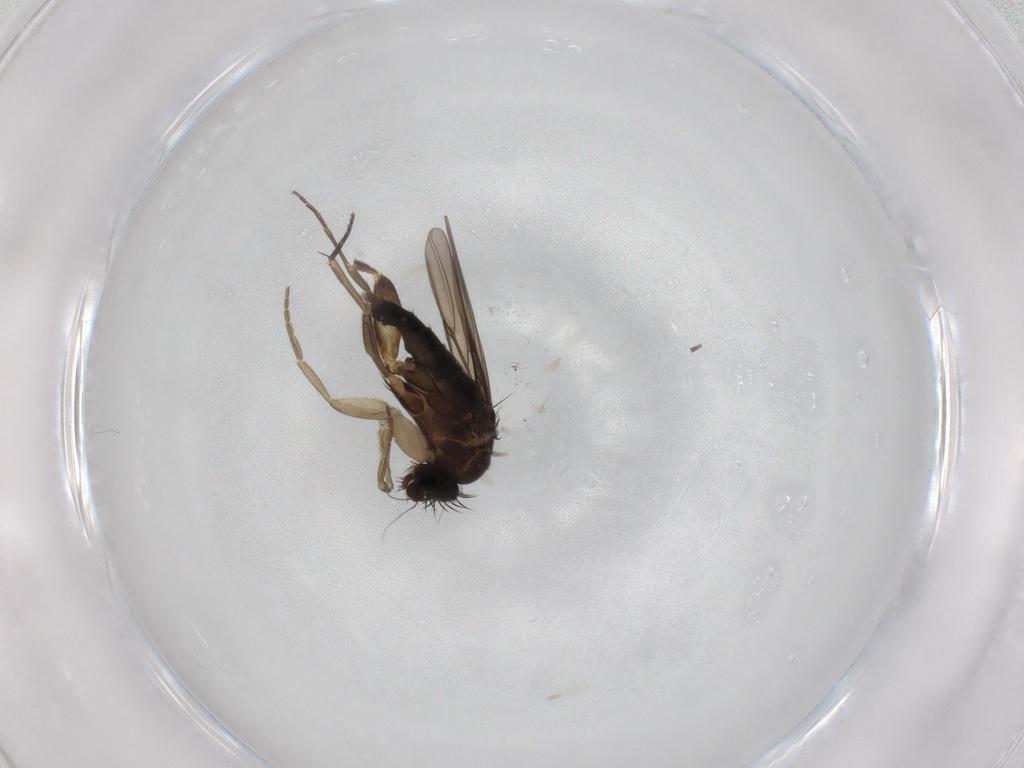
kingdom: Animalia
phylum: Arthropoda
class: Insecta
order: Diptera
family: Phoridae
